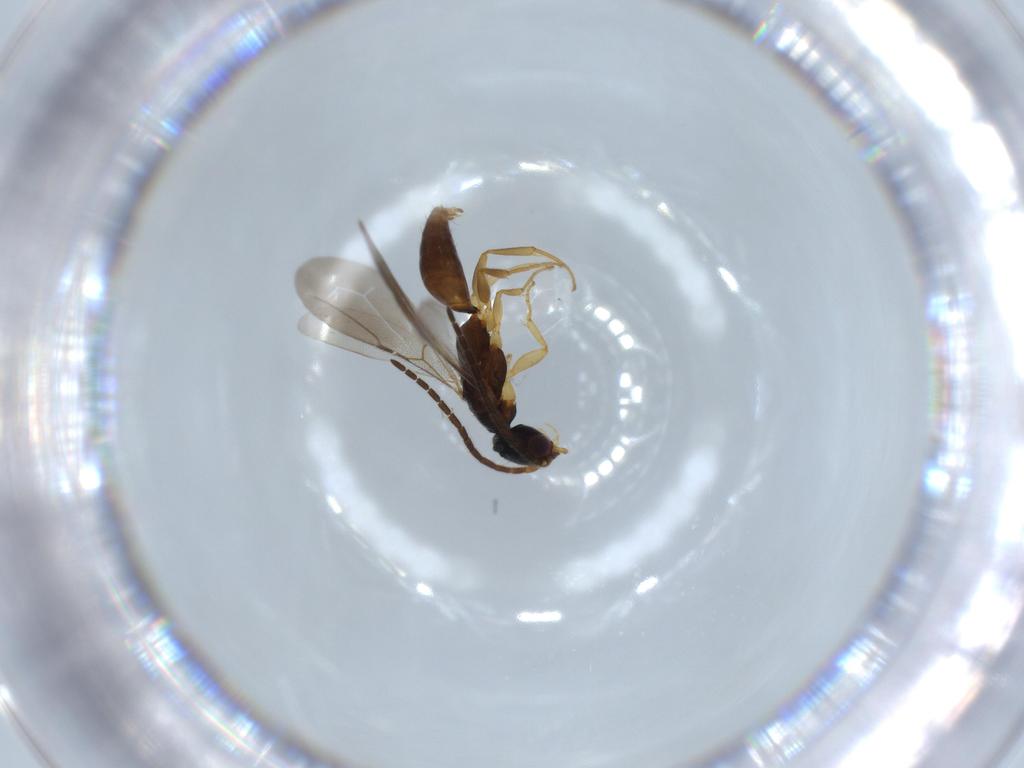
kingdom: Animalia
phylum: Arthropoda
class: Insecta
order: Hymenoptera
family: Bethylidae
